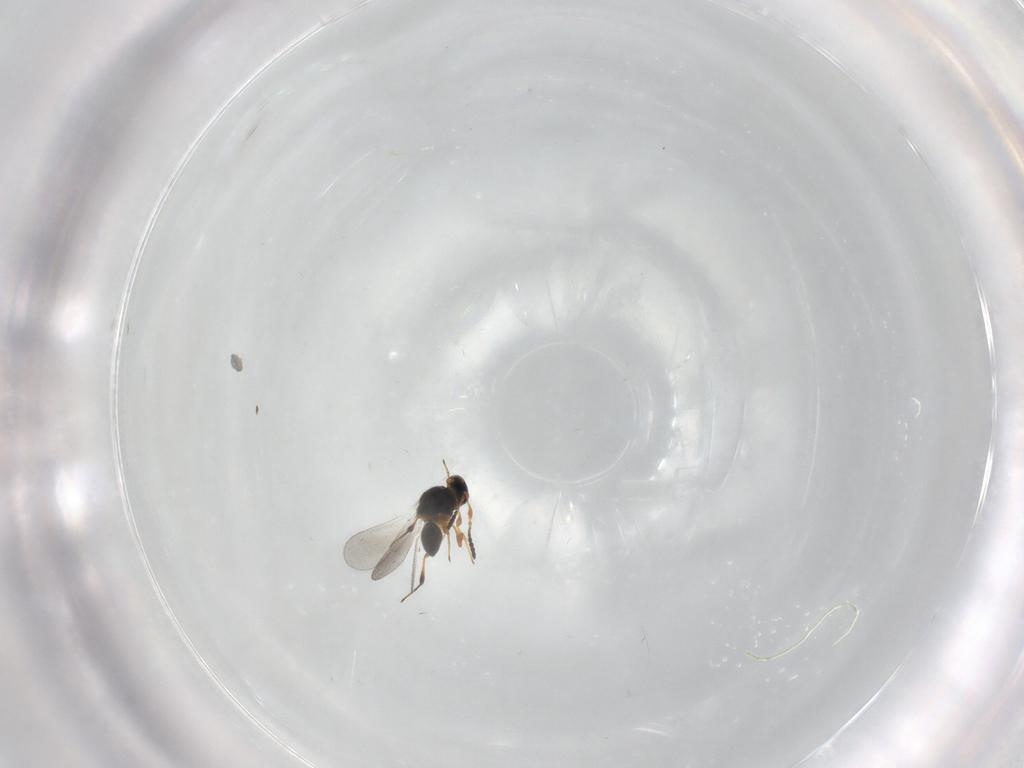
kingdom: Animalia
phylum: Arthropoda
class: Insecta
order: Hymenoptera
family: Platygastridae
